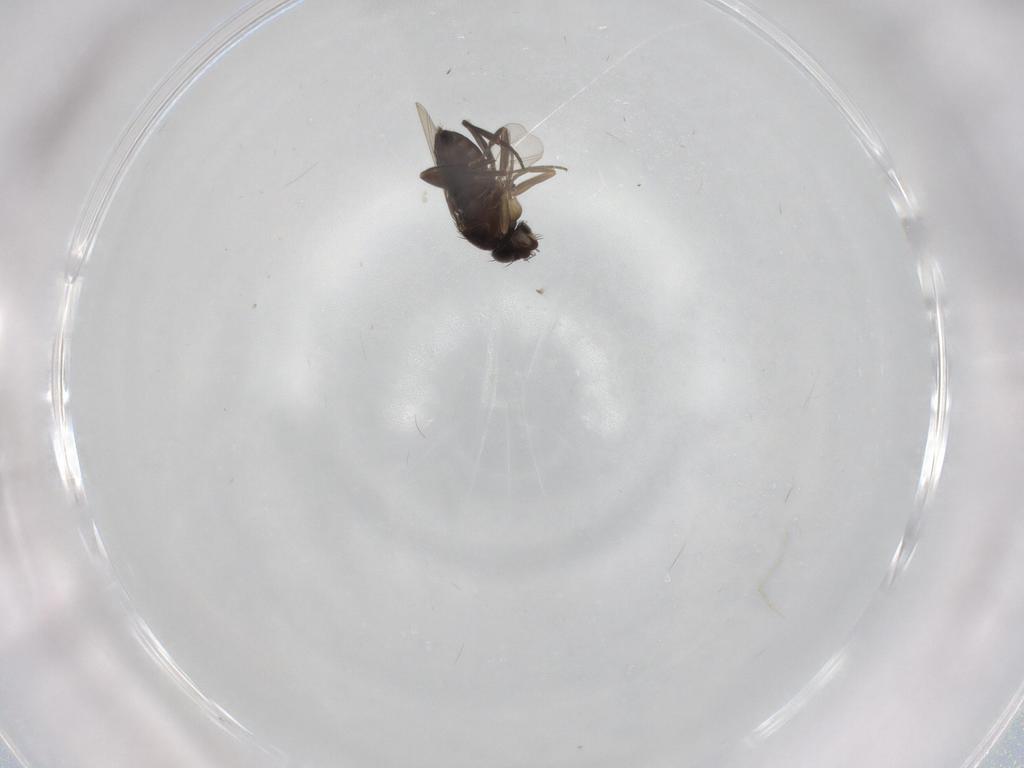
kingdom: Animalia
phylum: Arthropoda
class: Insecta
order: Diptera
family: Phoridae
